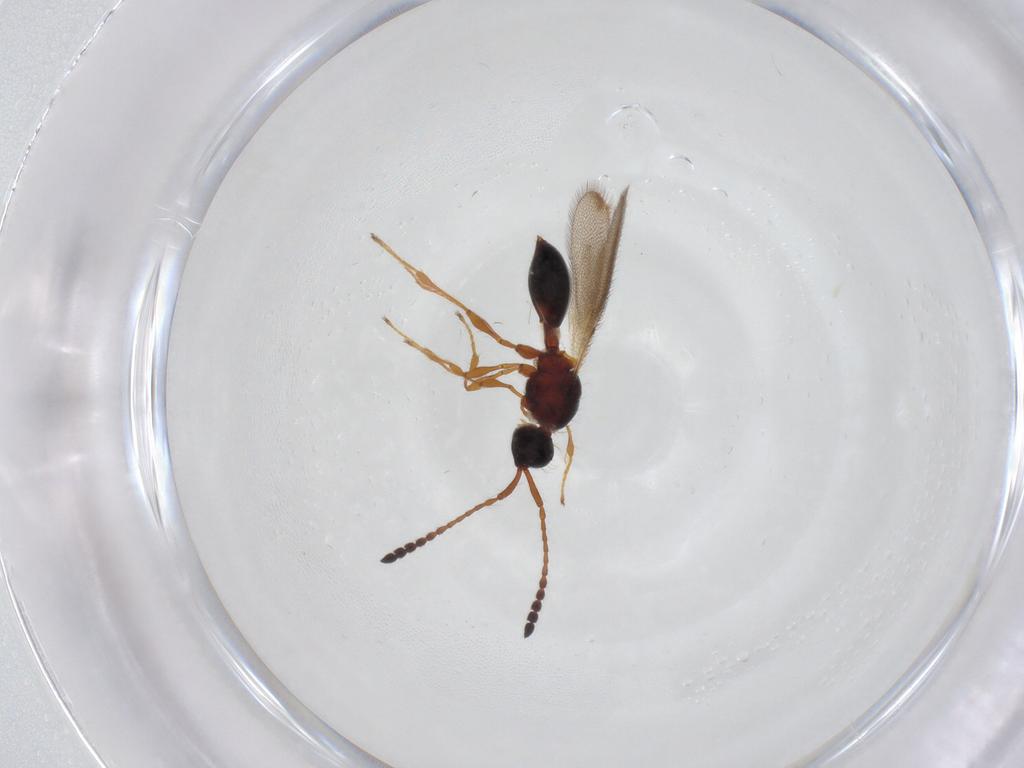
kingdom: Animalia
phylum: Arthropoda
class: Insecta
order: Hymenoptera
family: Diapriidae
